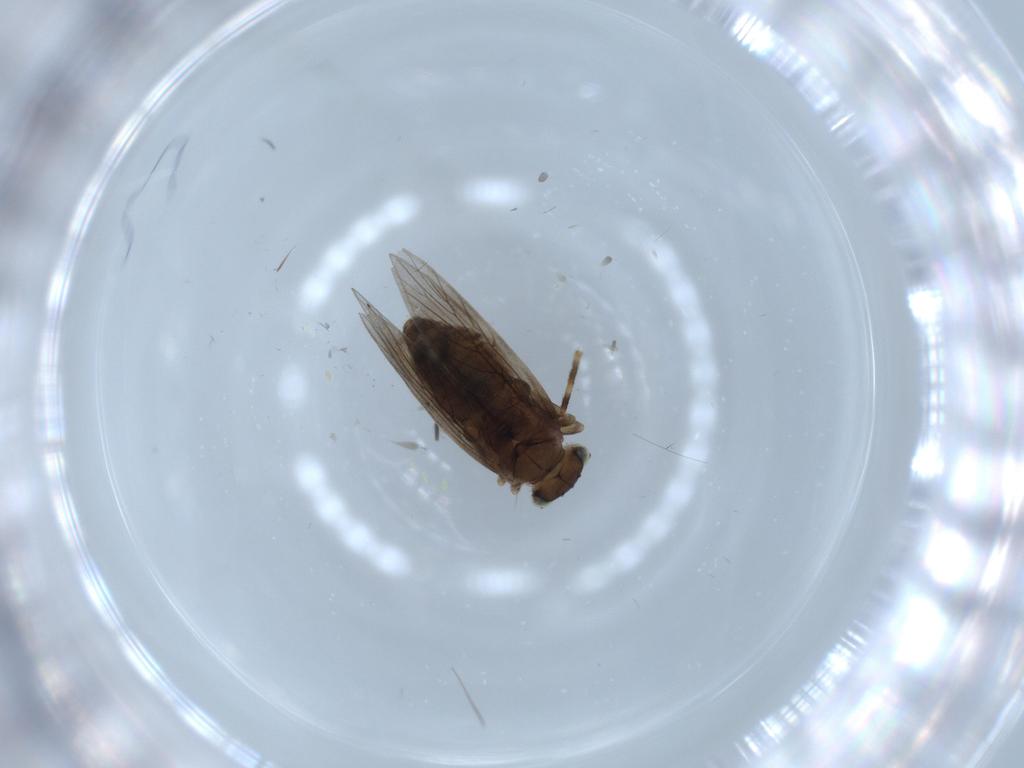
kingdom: Animalia
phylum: Arthropoda
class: Insecta
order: Psocodea
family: Lepidopsocidae
